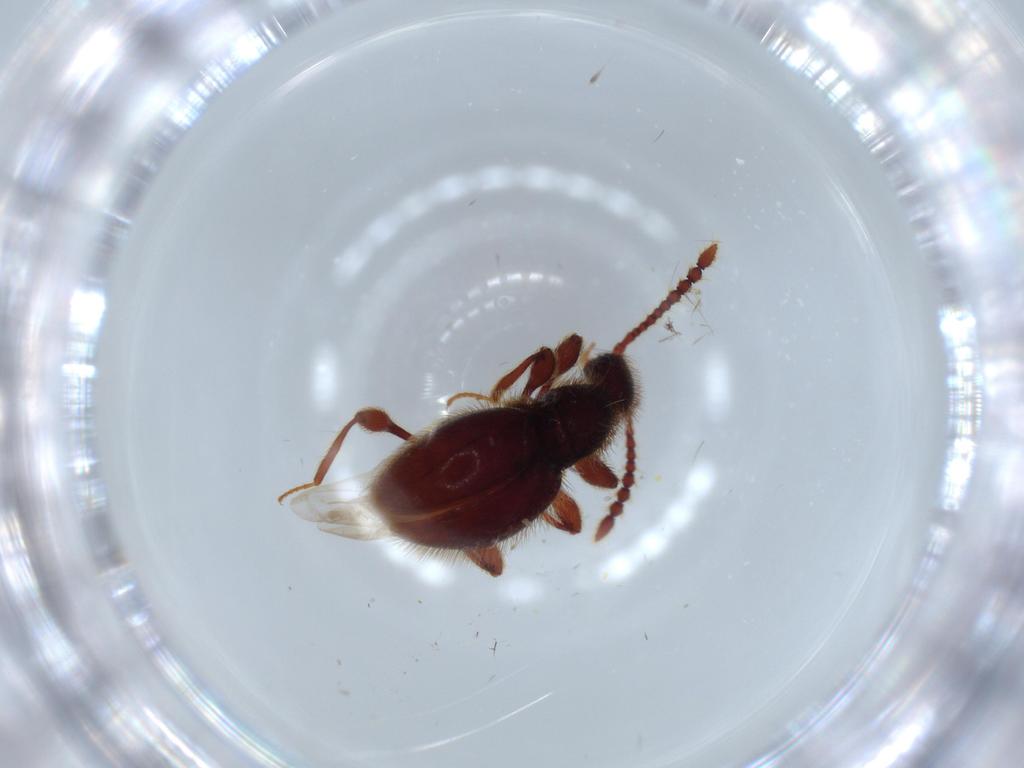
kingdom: Animalia
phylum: Arthropoda
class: Insecta
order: Coleoptera
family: Staphylinidae
